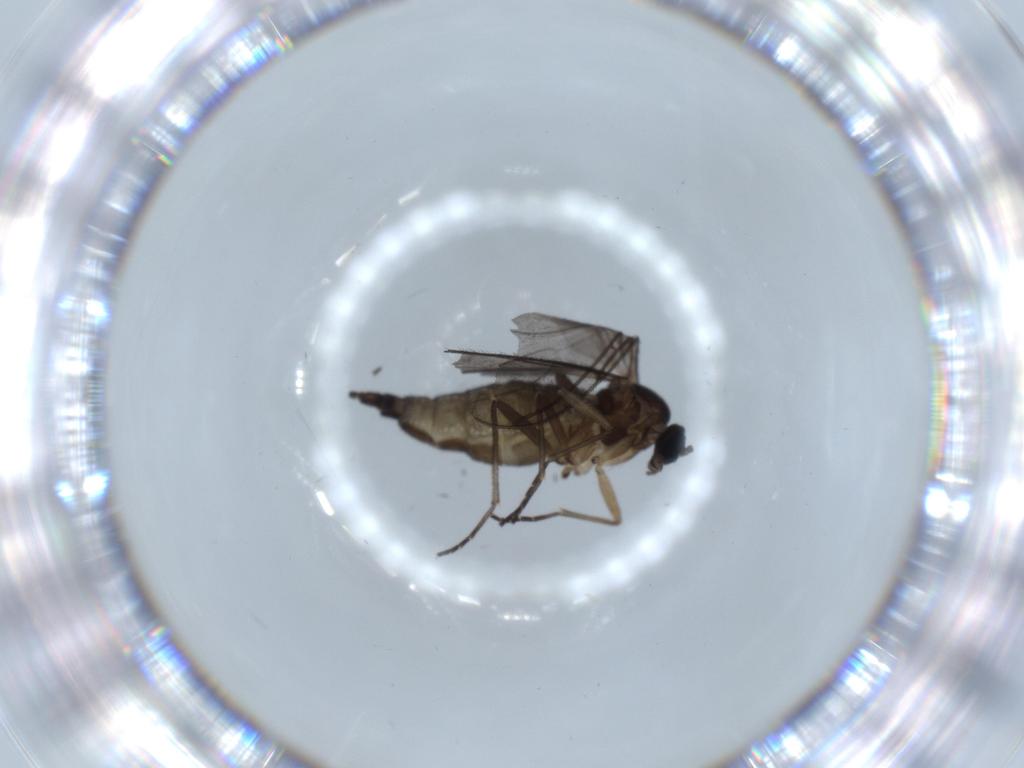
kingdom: Animalia
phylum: Arthropoda
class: Insecta
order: Diptera
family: Sciaridae
